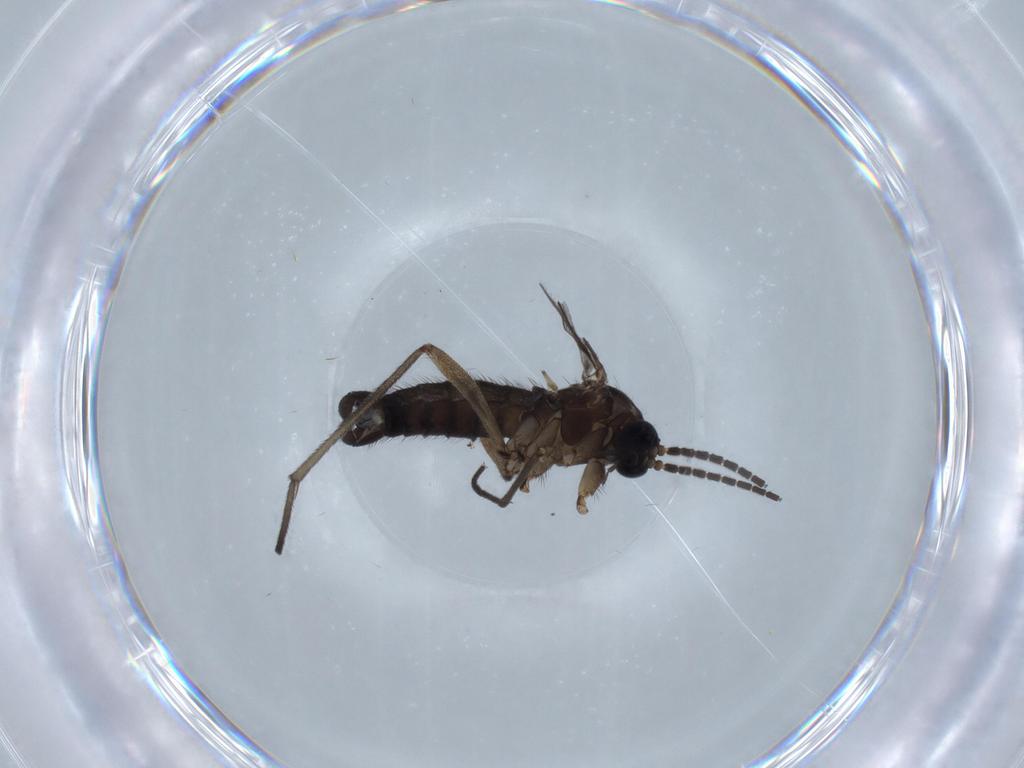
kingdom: Animalia
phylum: Arthropoda
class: Insecta
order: Diptera
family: Sciaridae
